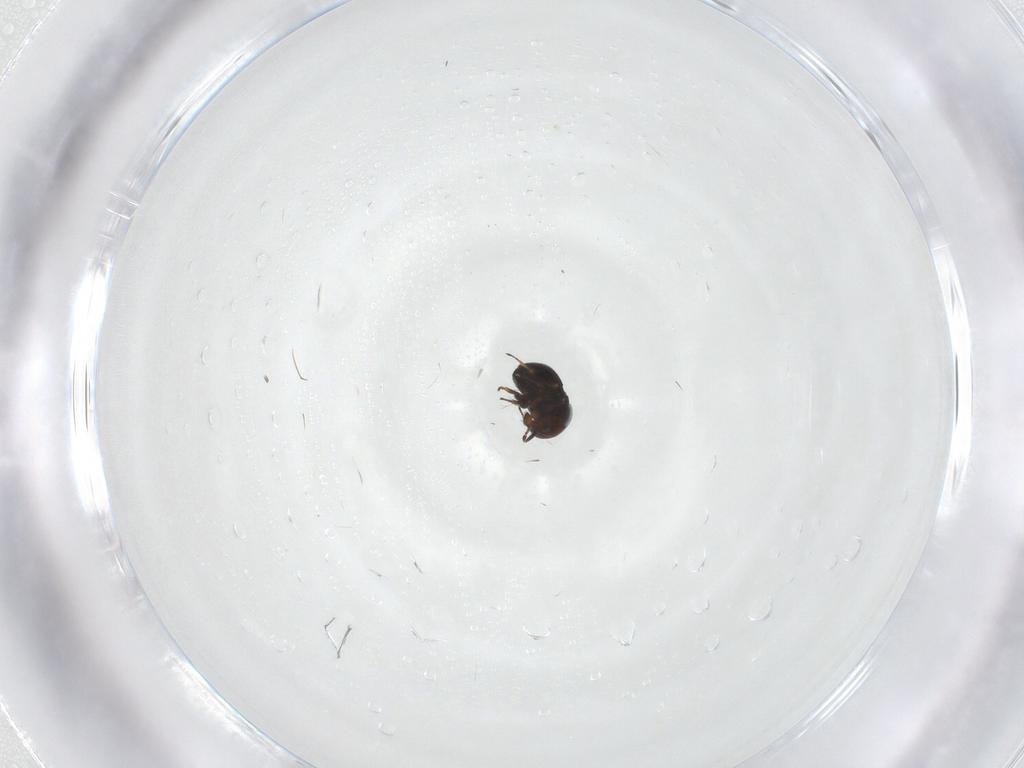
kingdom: Animalia
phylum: Arthropoda
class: Insecta
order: Hymenoptera
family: Scelionidae
